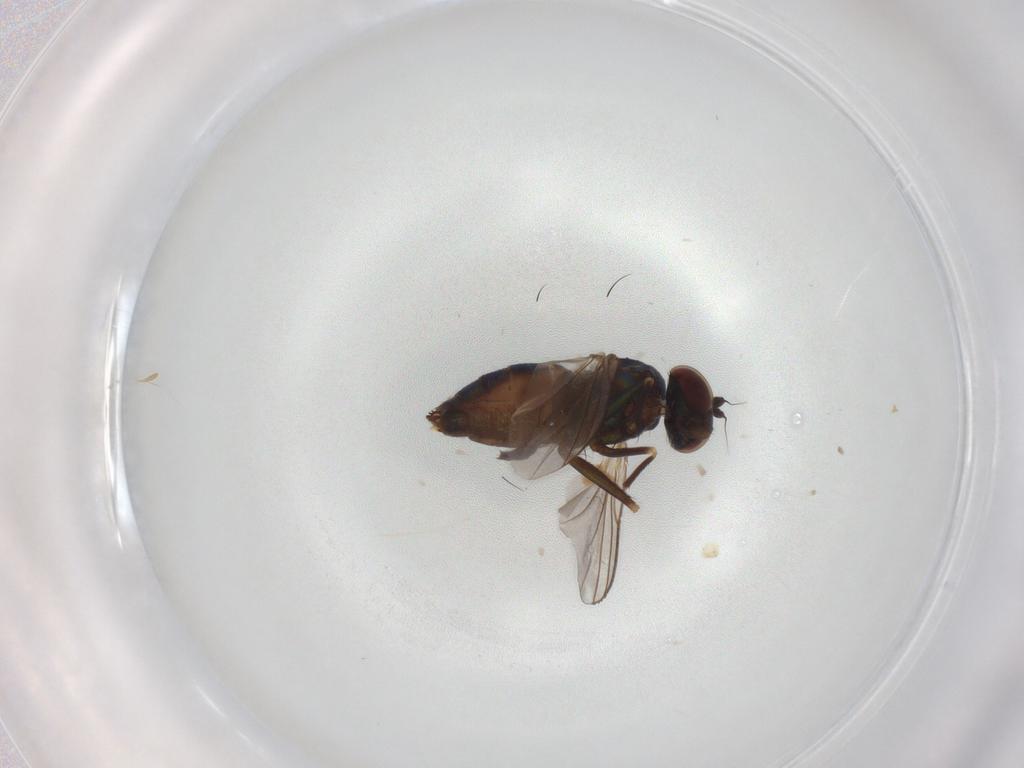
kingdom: Animalia
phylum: Arthropoda
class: Insecta
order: Diptera
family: Dolichopodidae
